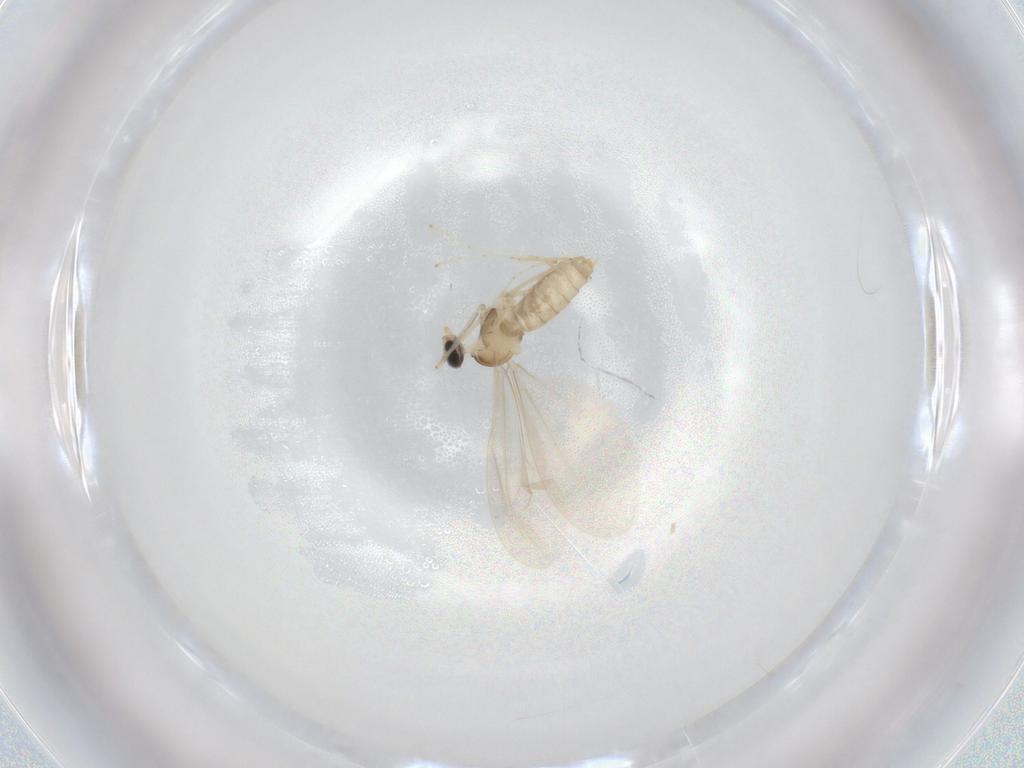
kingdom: Animalia
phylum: Arthropoda
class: Insecta
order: Diptera
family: Cecidomyiidae
